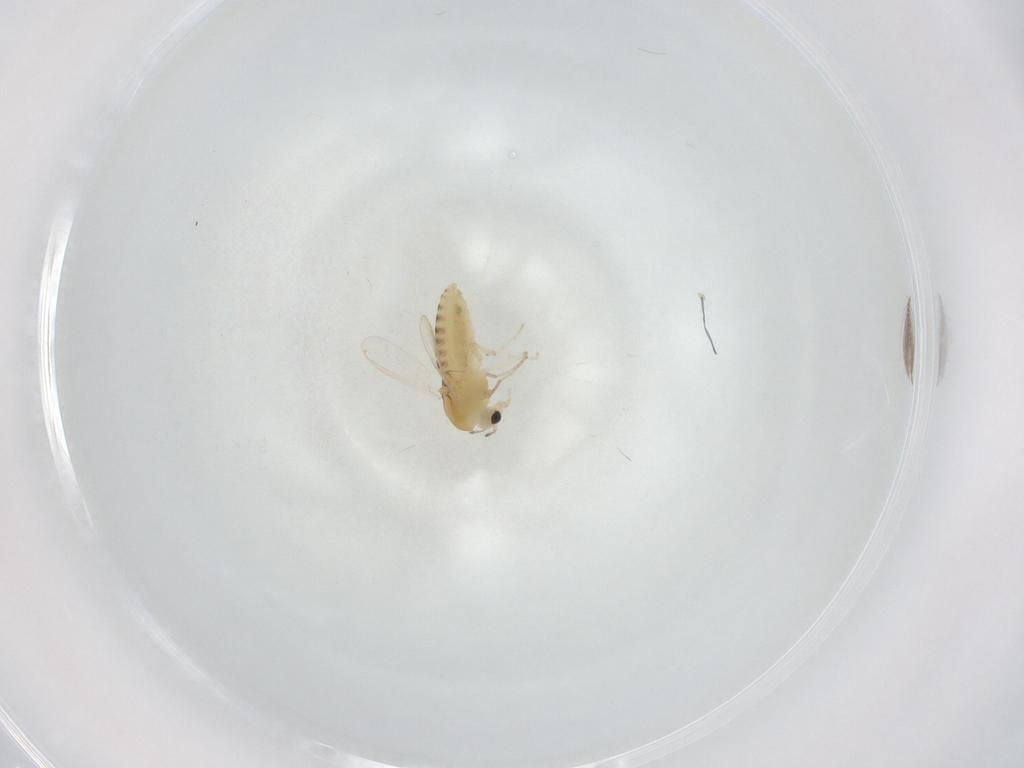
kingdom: Animalia
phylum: Arthropoda
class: Insecta
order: Diptera
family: Chironomidae
